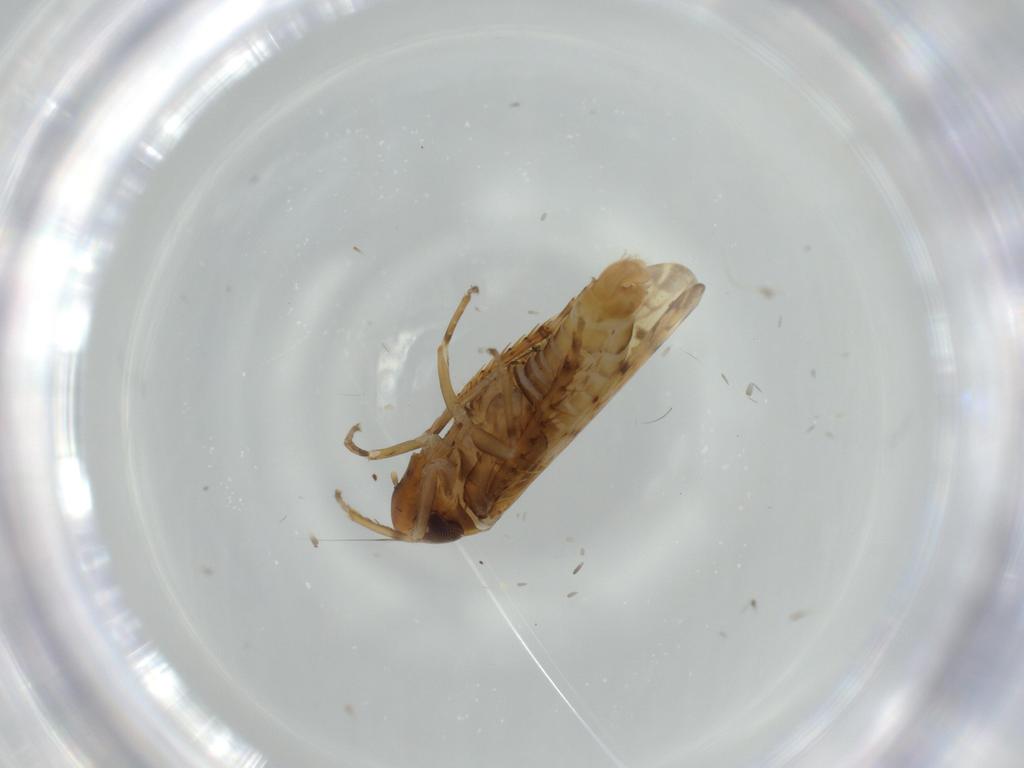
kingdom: Animalia
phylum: Arthropoda
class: Insecta
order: Hemiptera
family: Cicadellidae
